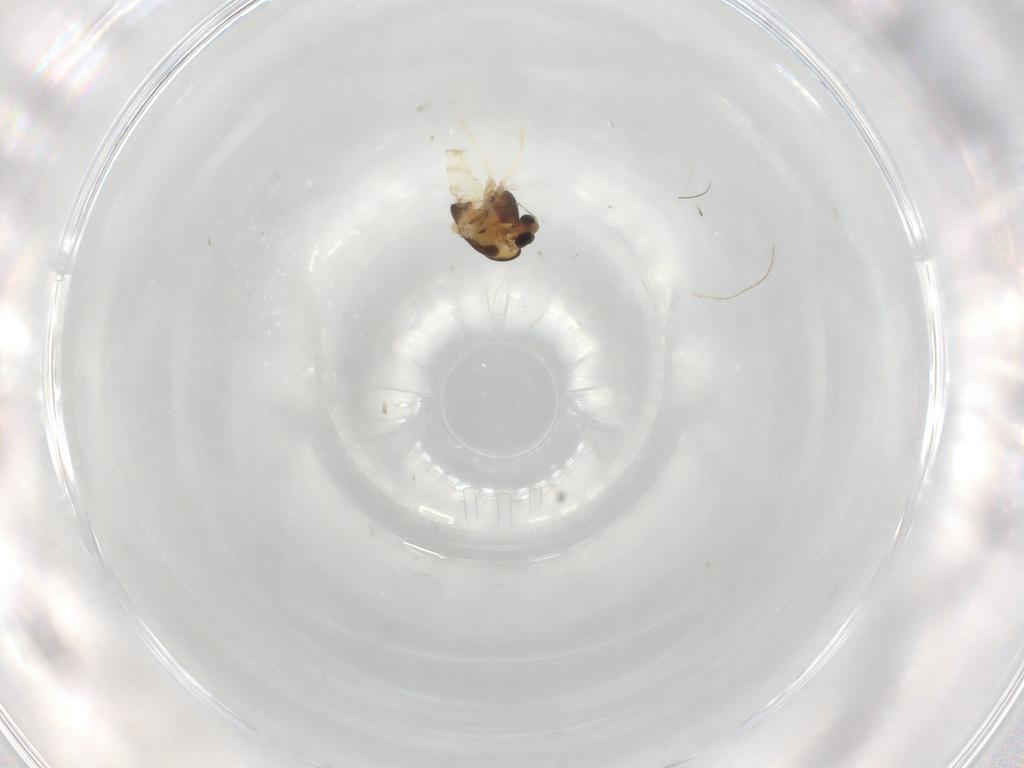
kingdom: Animalia
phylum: Arthropoda
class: Insecta
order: Diptera
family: Chironomidae
